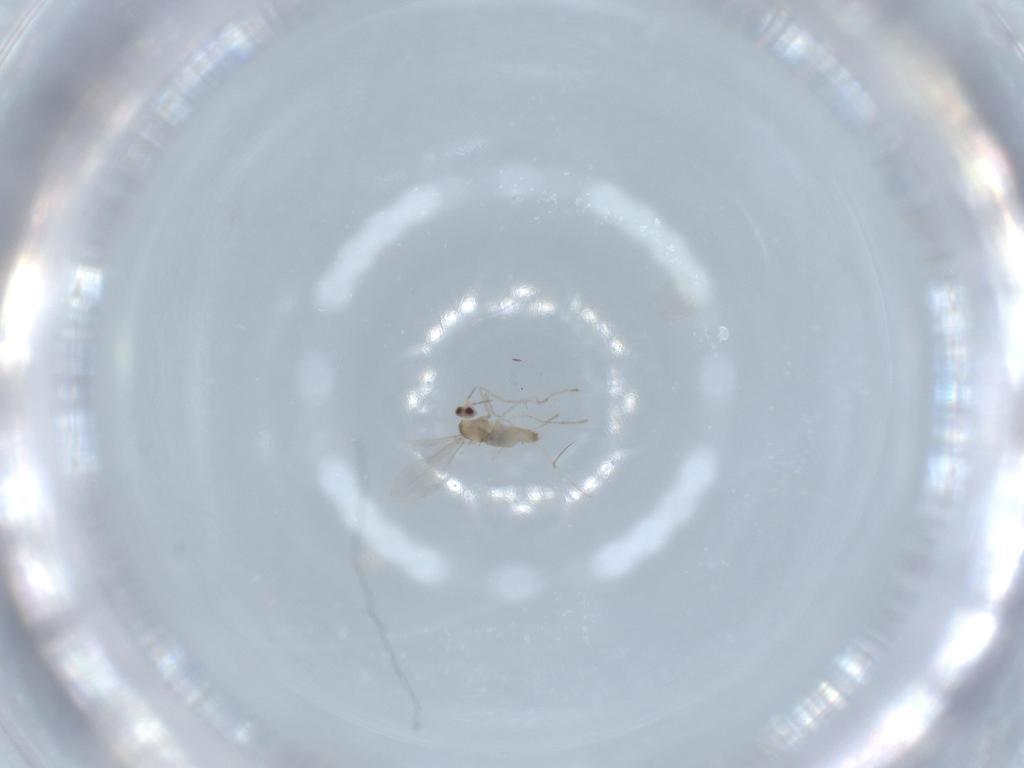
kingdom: Animalia
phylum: Arthropoda
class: Insecta
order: Diptera
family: Cecidomyiidae
